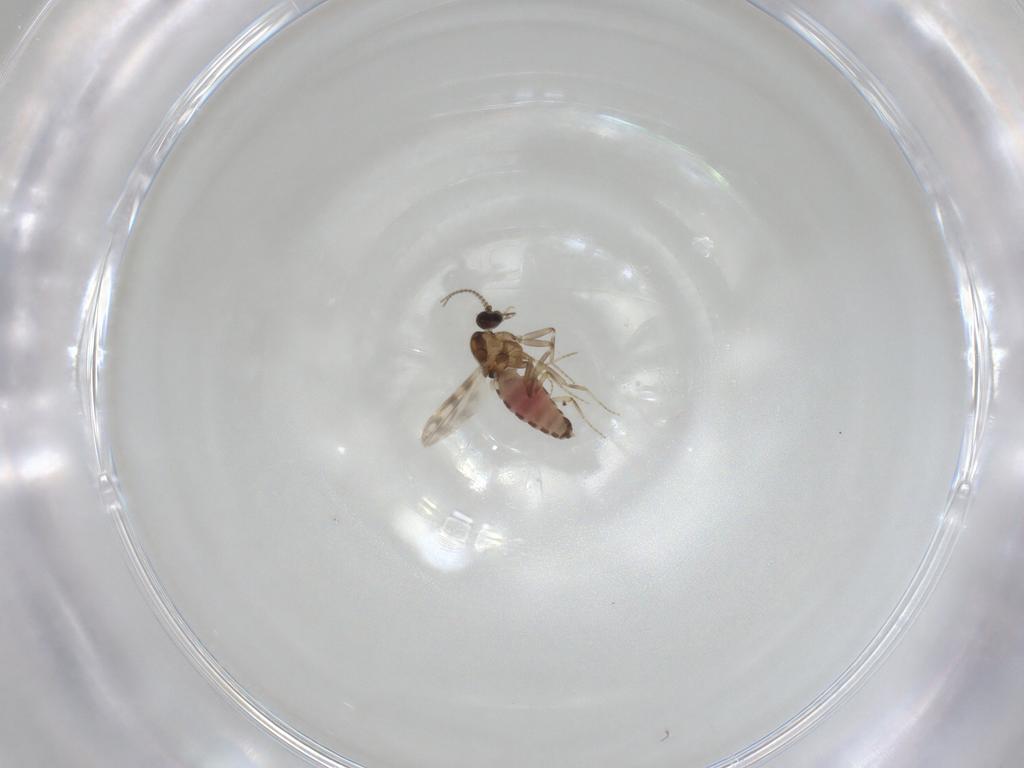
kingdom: Animalia
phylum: Arthropoda
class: Insecta
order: Diptera
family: Ceratopogonidae
